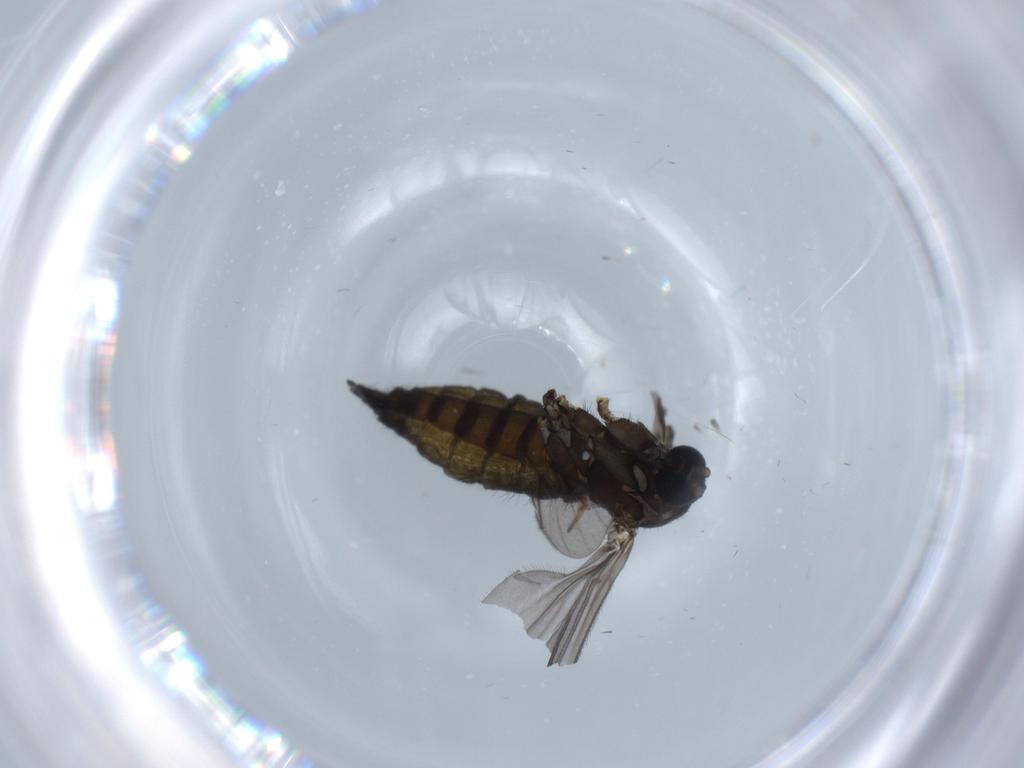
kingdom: Animalia
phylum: Arthropoda
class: Insecta
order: Diptera
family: Sciaridae
